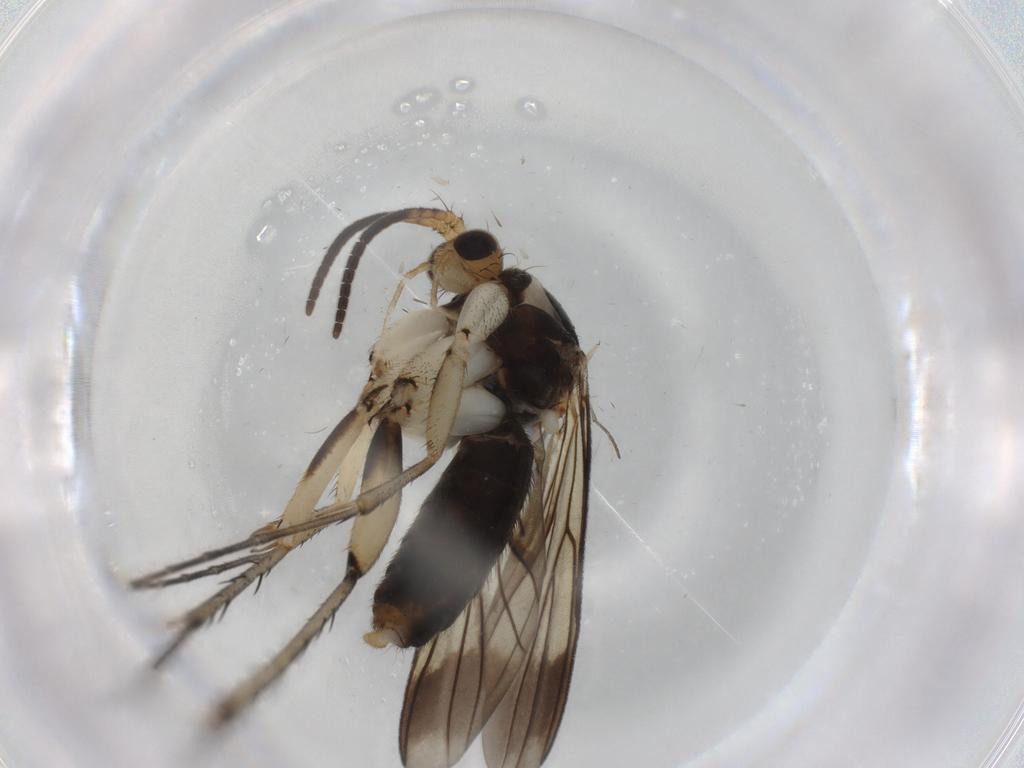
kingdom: Animalia
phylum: Arthropoda
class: Insecta
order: Diptera
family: Mycetophilidae
